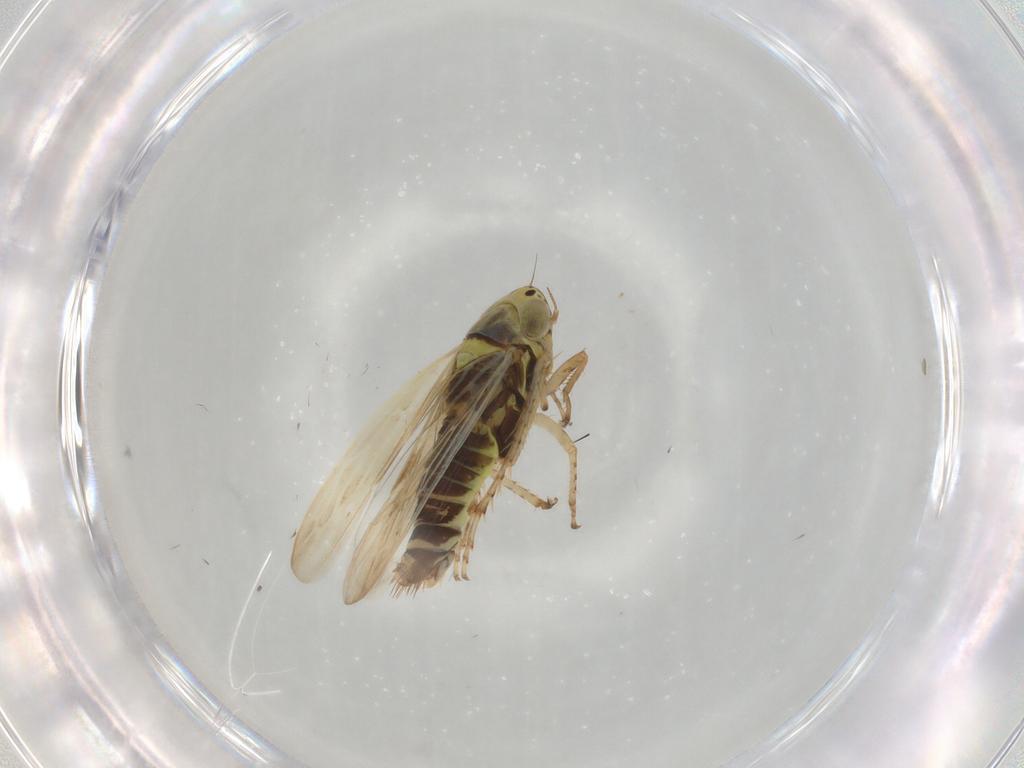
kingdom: Animalia
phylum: Arthropoda
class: Insecta
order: Hemiptera
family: Cicadellidae
